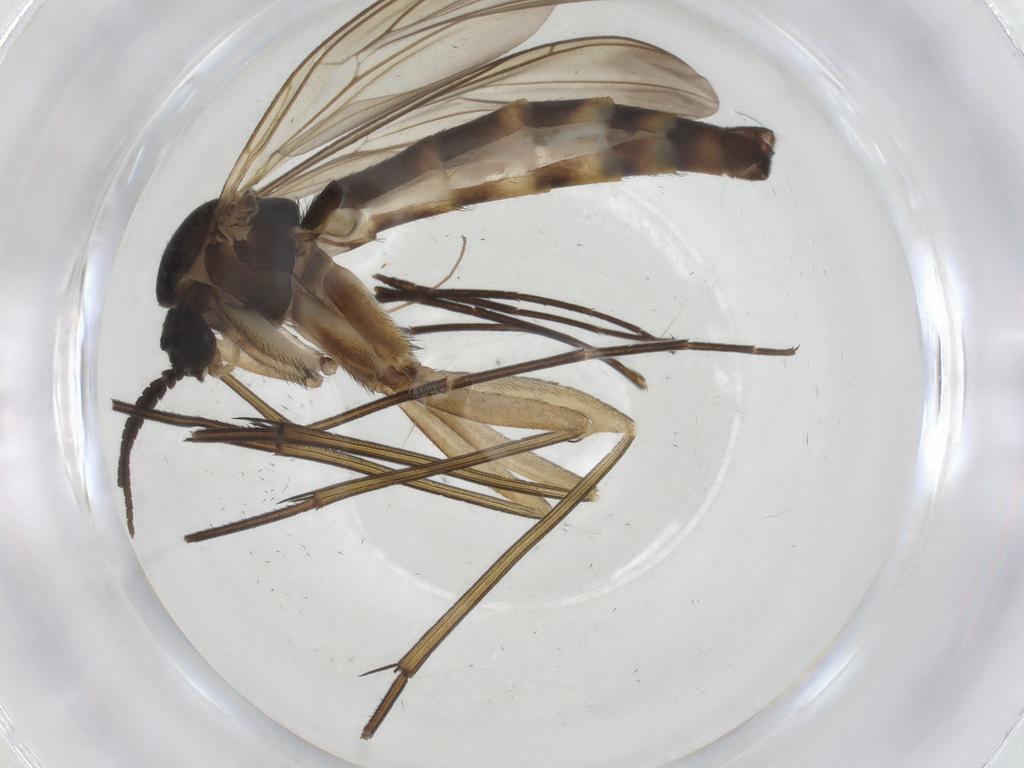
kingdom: Animalia
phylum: Arthropoda
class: Insecta
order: Diptera
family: Keroplatidae
